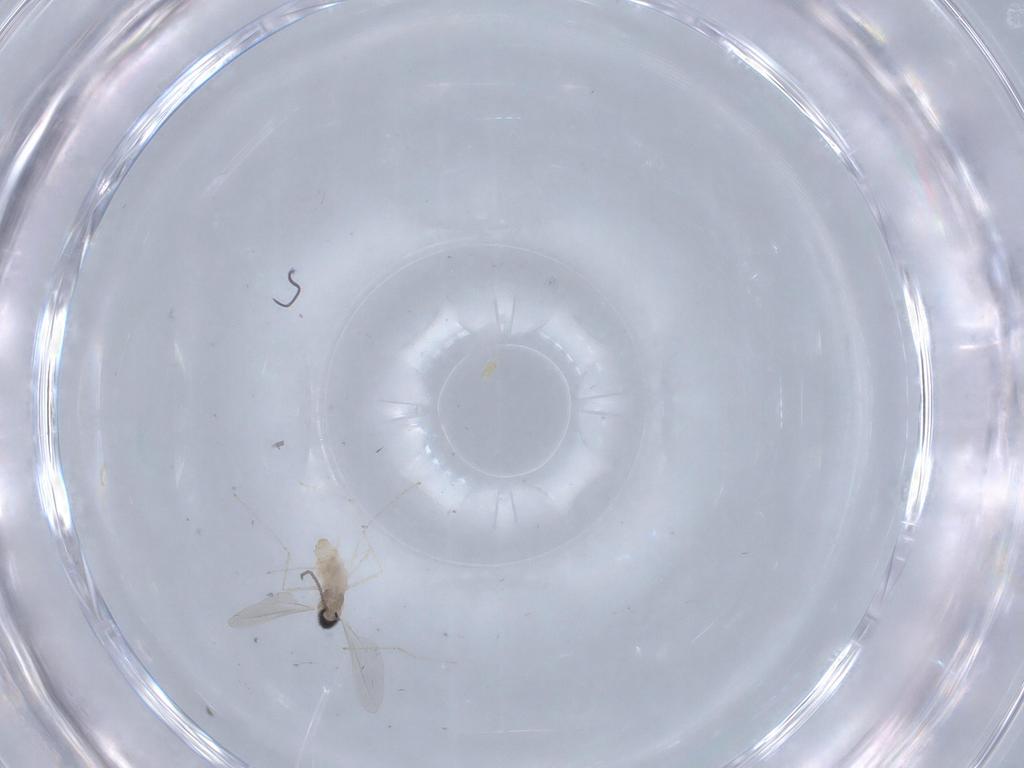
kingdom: Animalia
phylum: Arthropoda
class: Insecta
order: Diptera
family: Cecidomyiidae
